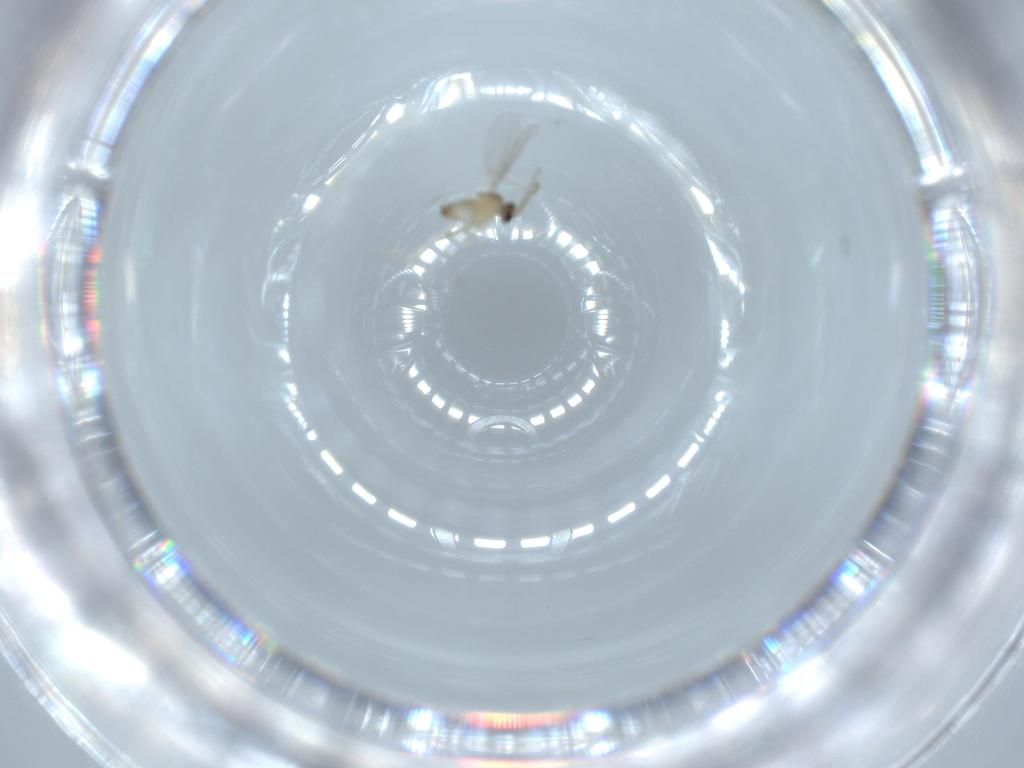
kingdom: Animalia
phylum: Arthropoda
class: Insecta
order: Diptera
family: Cecidomyiidae
